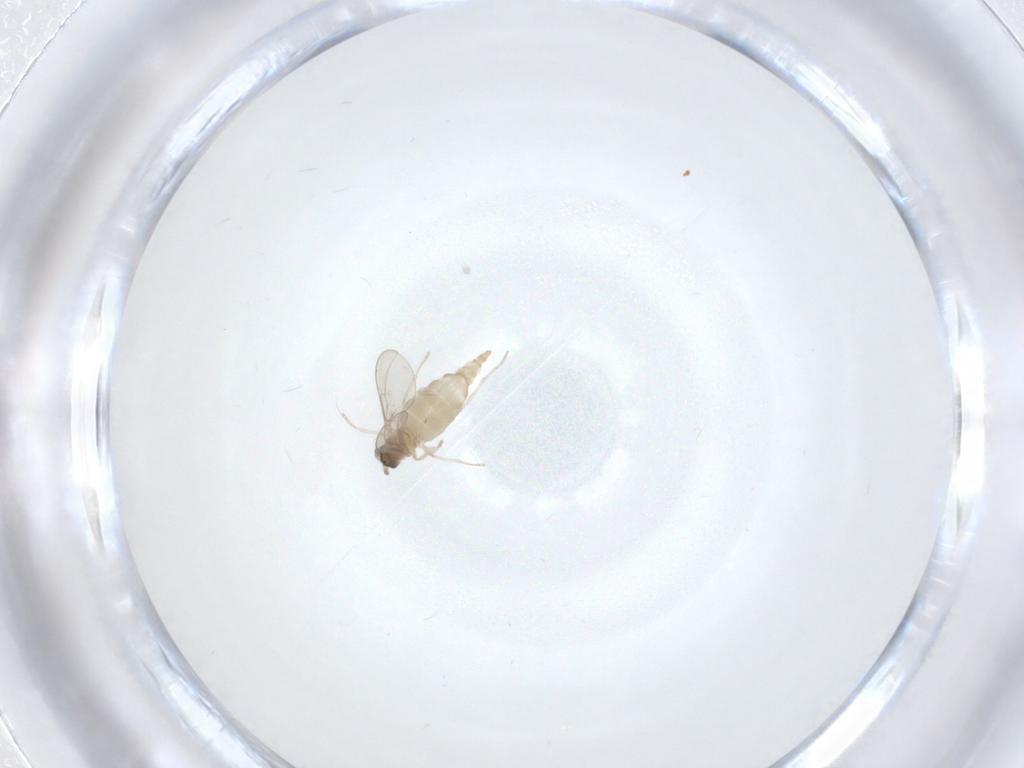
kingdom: Animalia
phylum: Arthropoda
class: Insecta
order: Diptera
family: Cecidomyiidae
